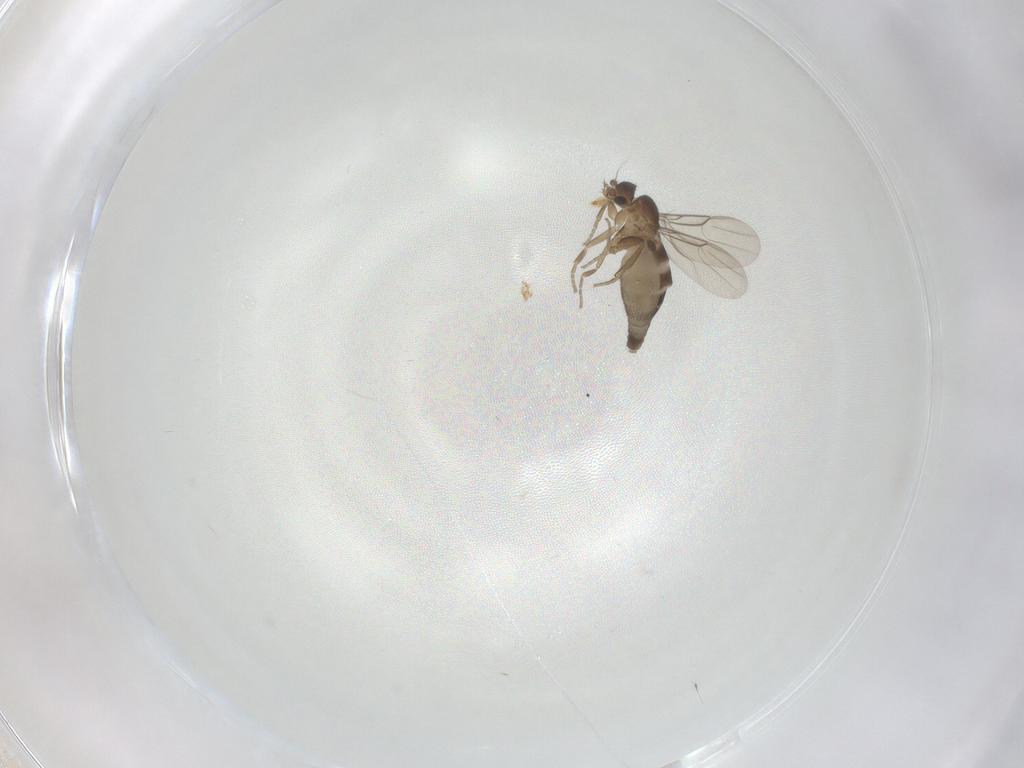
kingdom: Animalia
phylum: Arthropoda
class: Insecta
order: Diptera
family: Phoridae
